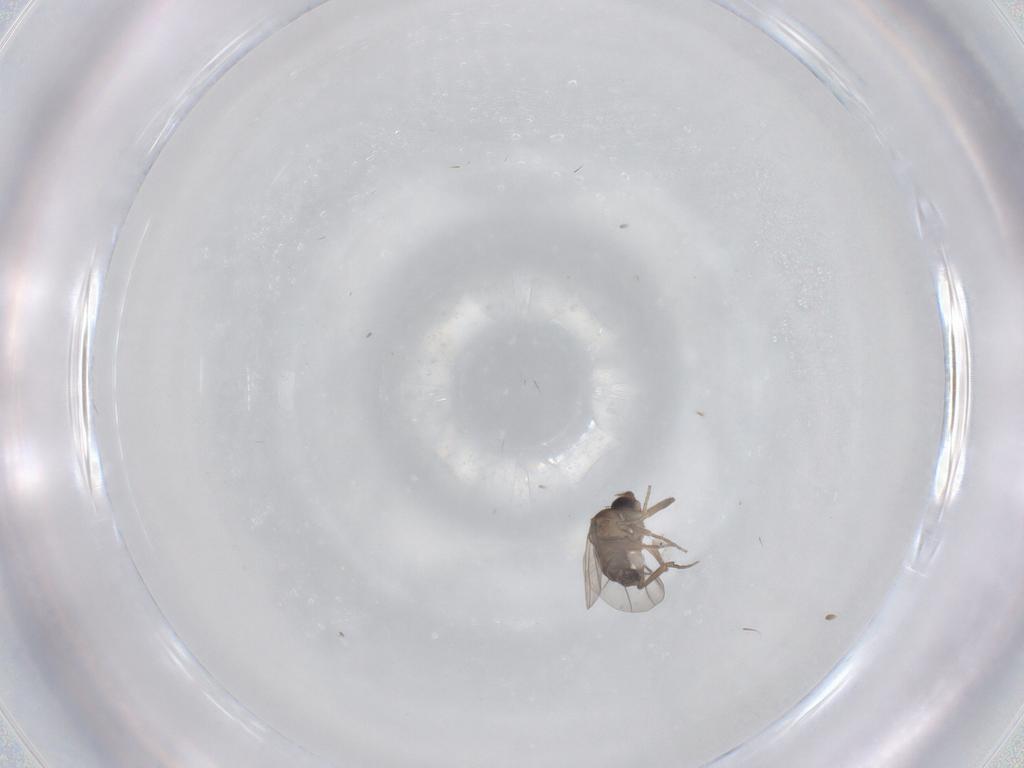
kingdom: Animalia
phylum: Arthropoda
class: Insecta
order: Diptera
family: Phoridae
